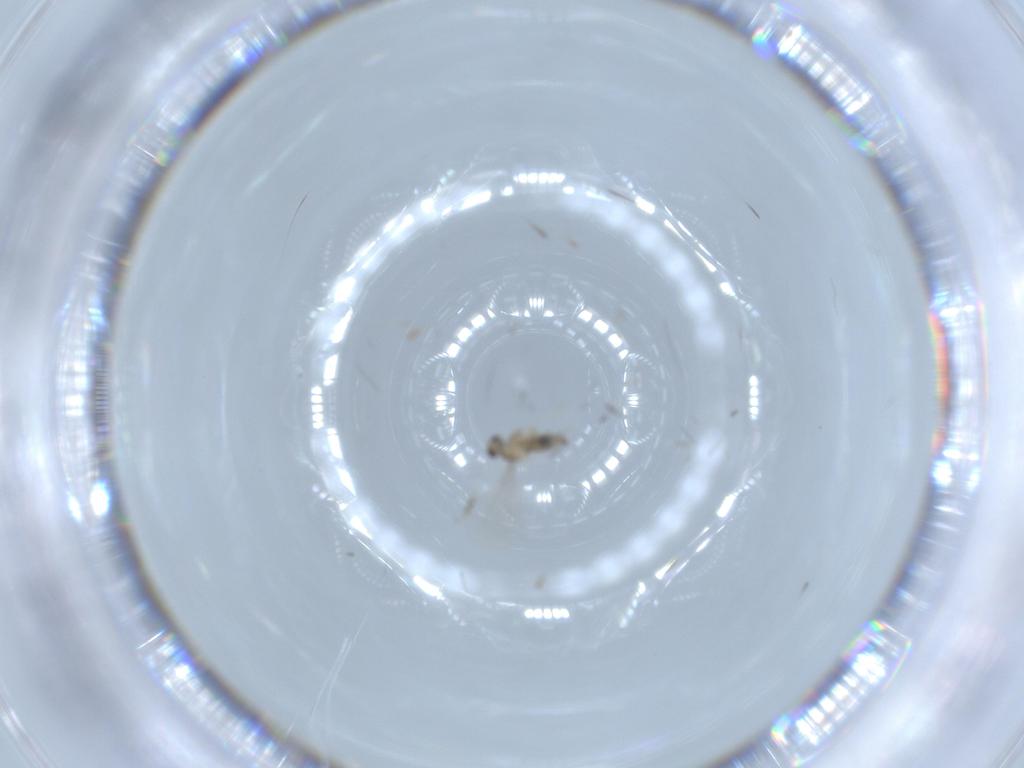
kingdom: Animalia
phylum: Arthropoda
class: Insecta
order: Diptera
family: Cecidomyiidae
